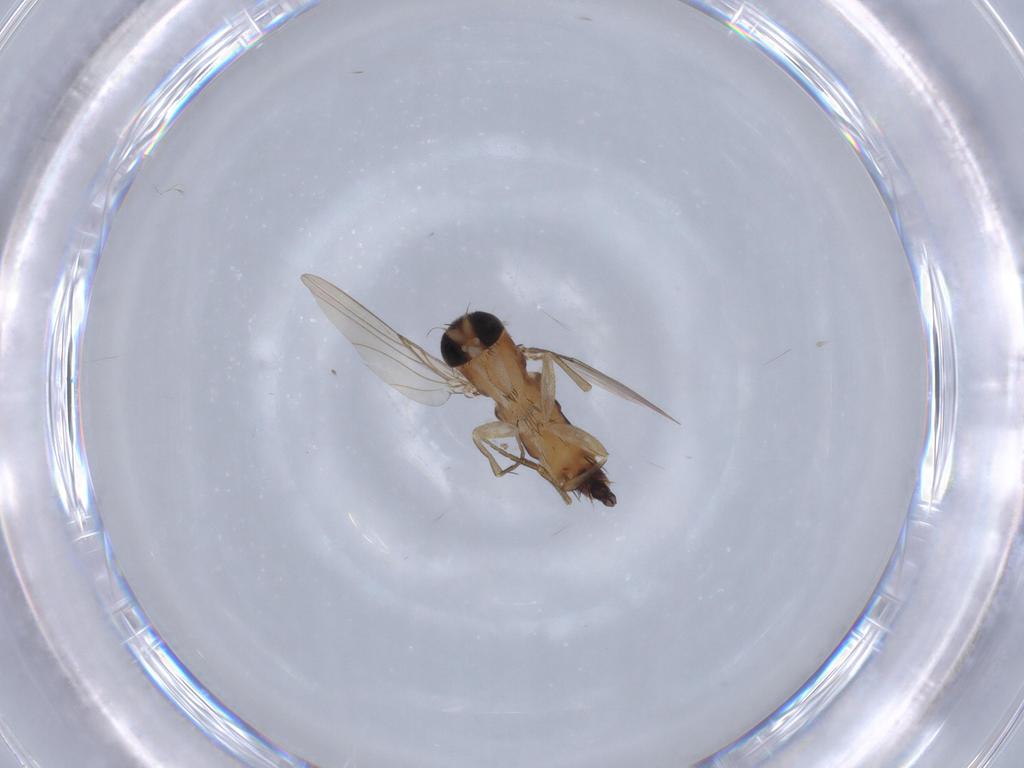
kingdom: Animalia
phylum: Arthropoda
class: Insecta
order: Diptera
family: Phoridae
